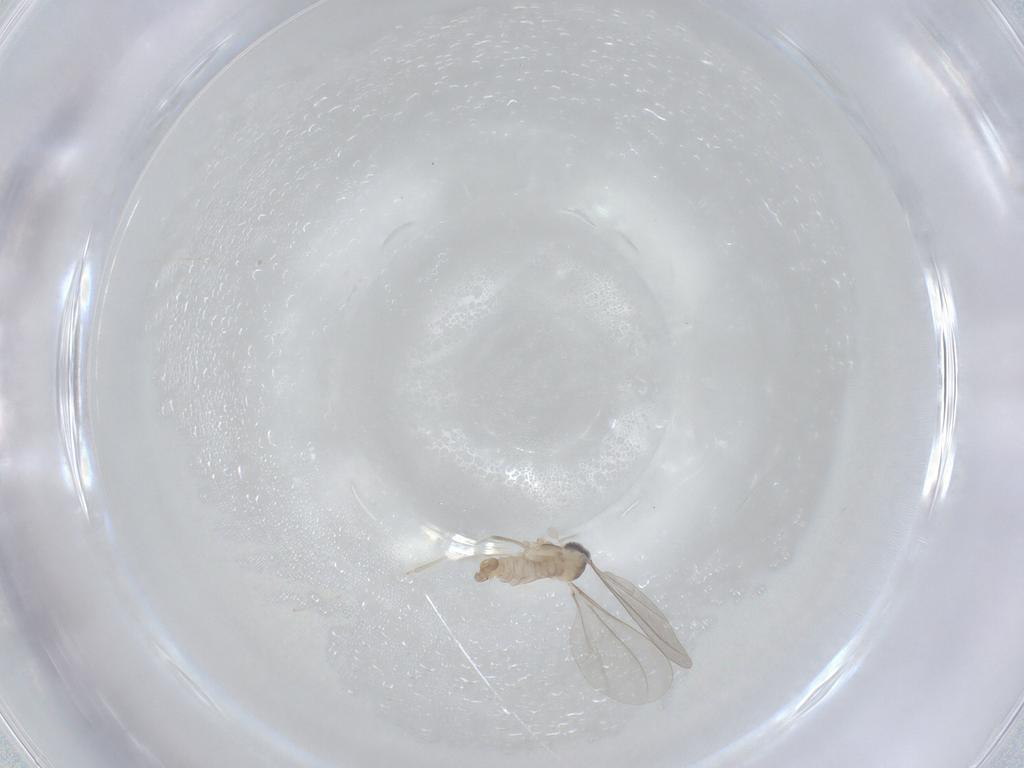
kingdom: Animalia
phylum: Arthropoda
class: Insecta
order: Diptera
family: Cecidomyiidae
